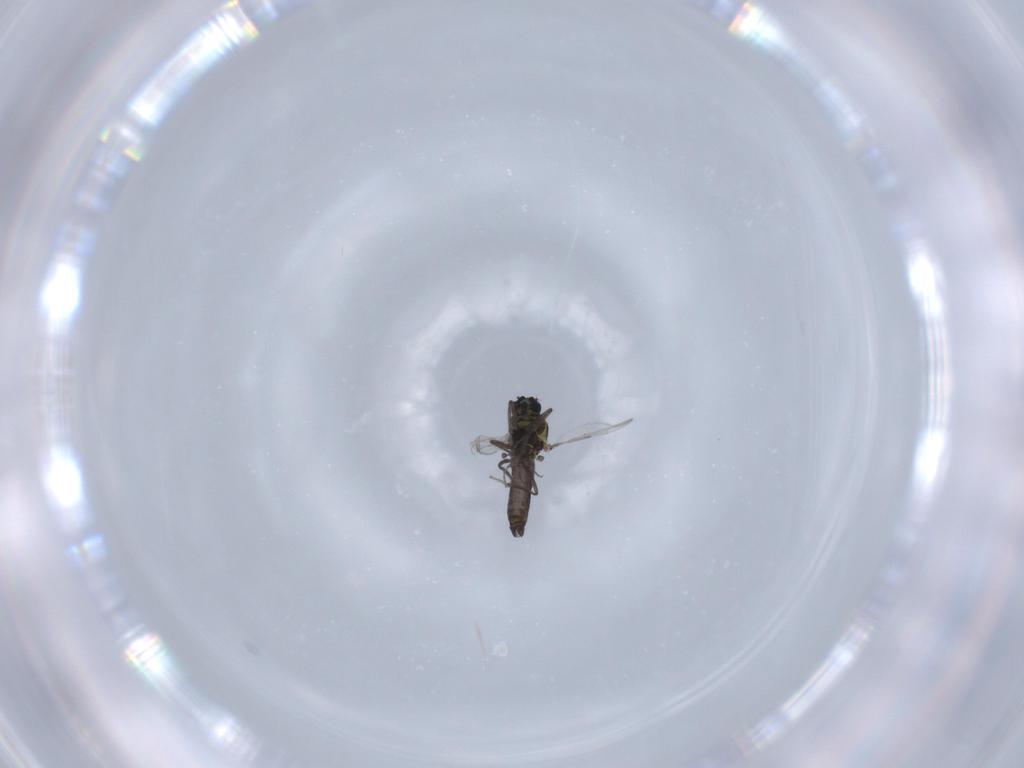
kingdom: Animalia
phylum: Arthropoda
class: Insecta
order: Diptera
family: Ceratopogonidae
